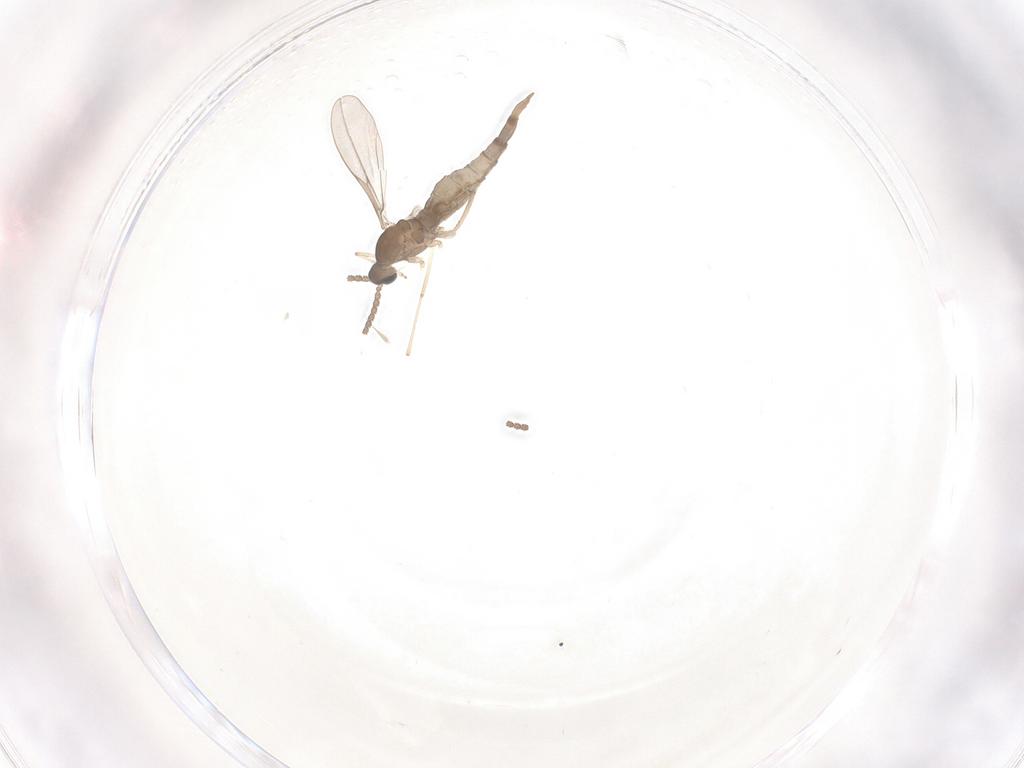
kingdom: Animalia
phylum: Arthropoda
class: Insecta
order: Diptera
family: Cecidomyiidae
